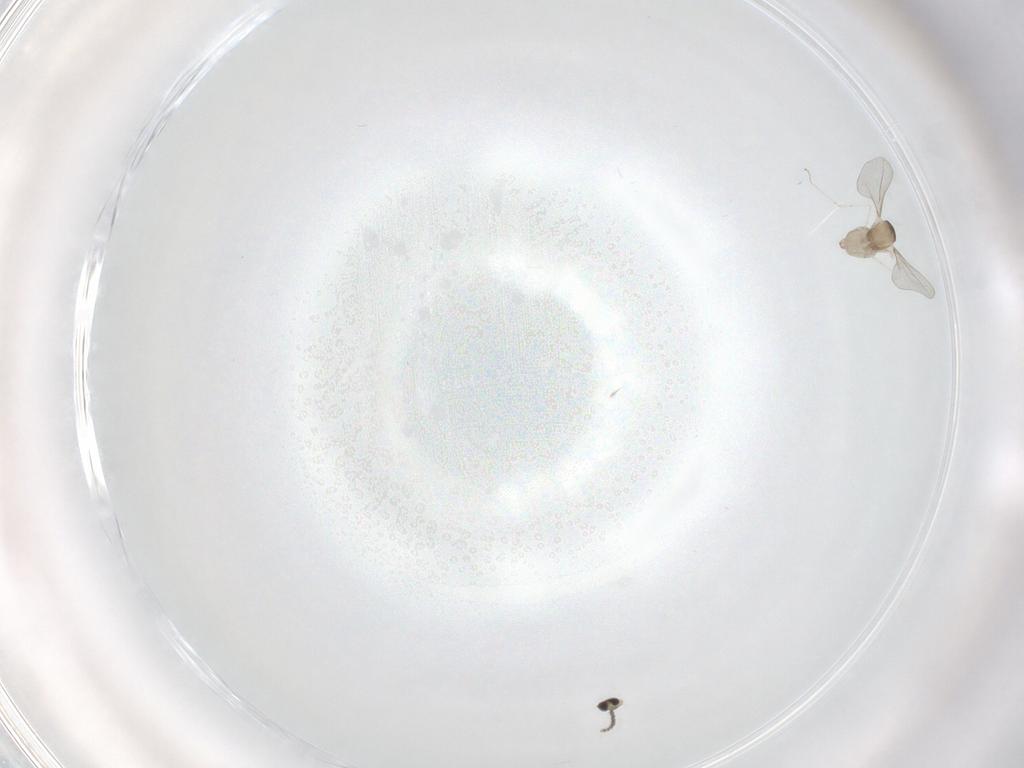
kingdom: Animalia
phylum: Arthropoda
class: Insecta
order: Diptera
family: Cecidomyiidae
